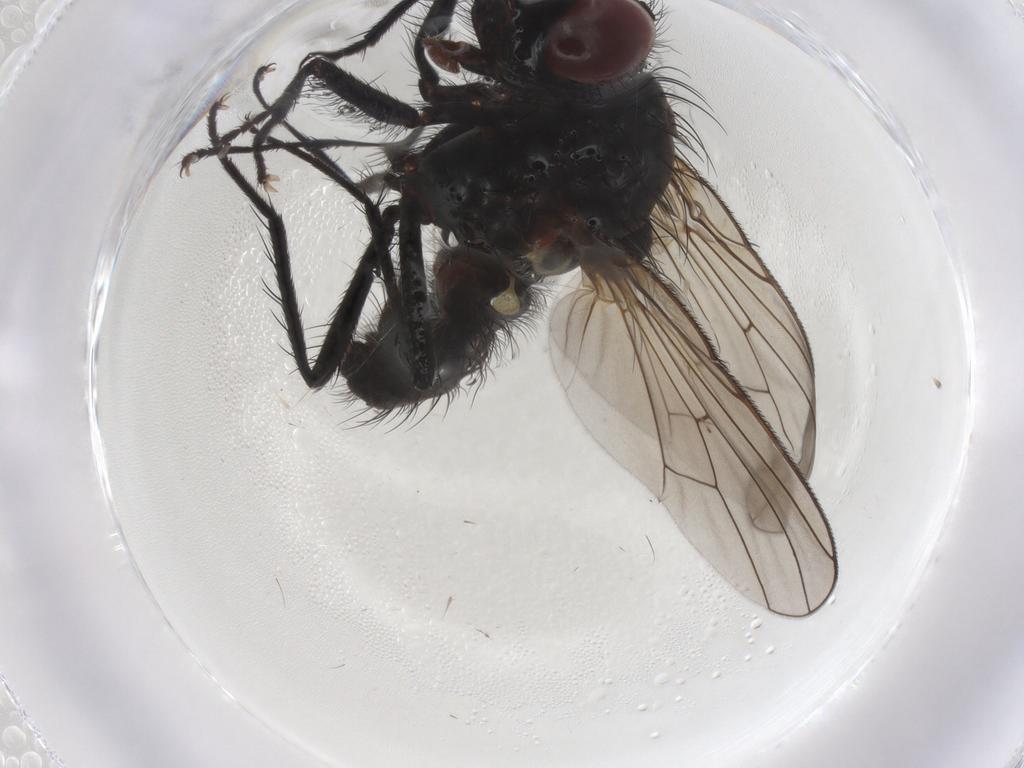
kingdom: Animalia
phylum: Arthropoda
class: Insecta
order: Diptera
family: Anthomyiidae
